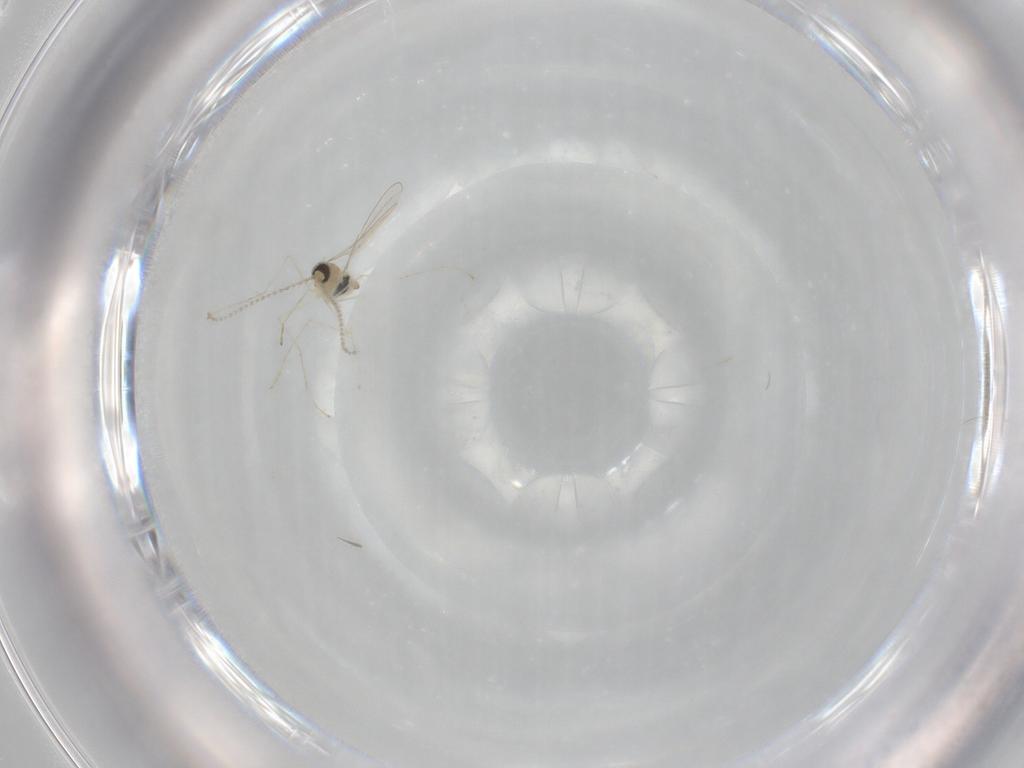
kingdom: Animalia
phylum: Arthropoda
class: Insecta
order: Diptera
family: Cecidomyiidae
